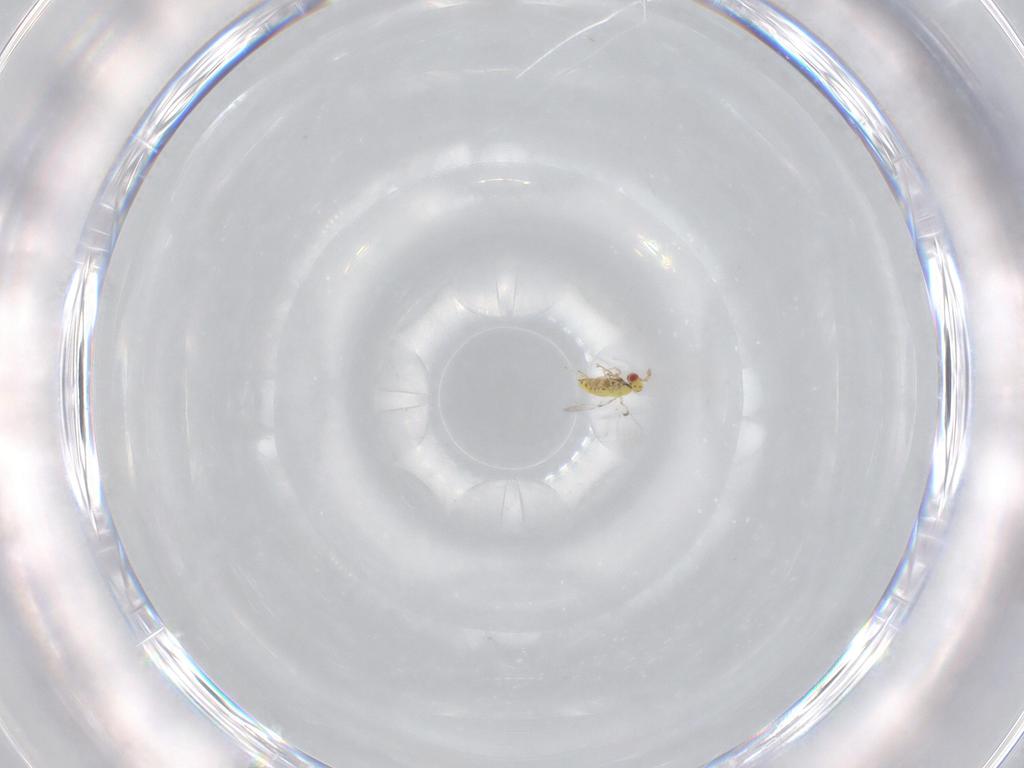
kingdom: Animalia
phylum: Arthropoda
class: Insecta
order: Hymenoptera
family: Trichogrammatidae
